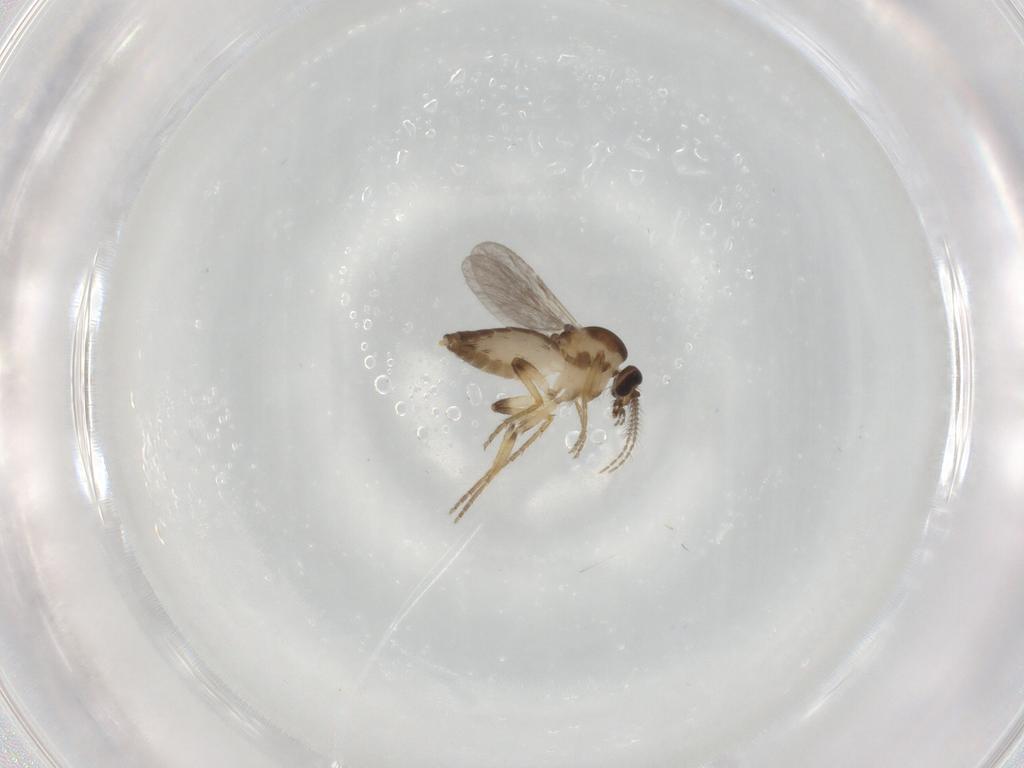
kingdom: Animalia
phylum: Arthropoda
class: Insecta
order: Diptera
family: Ceratopogonidae
